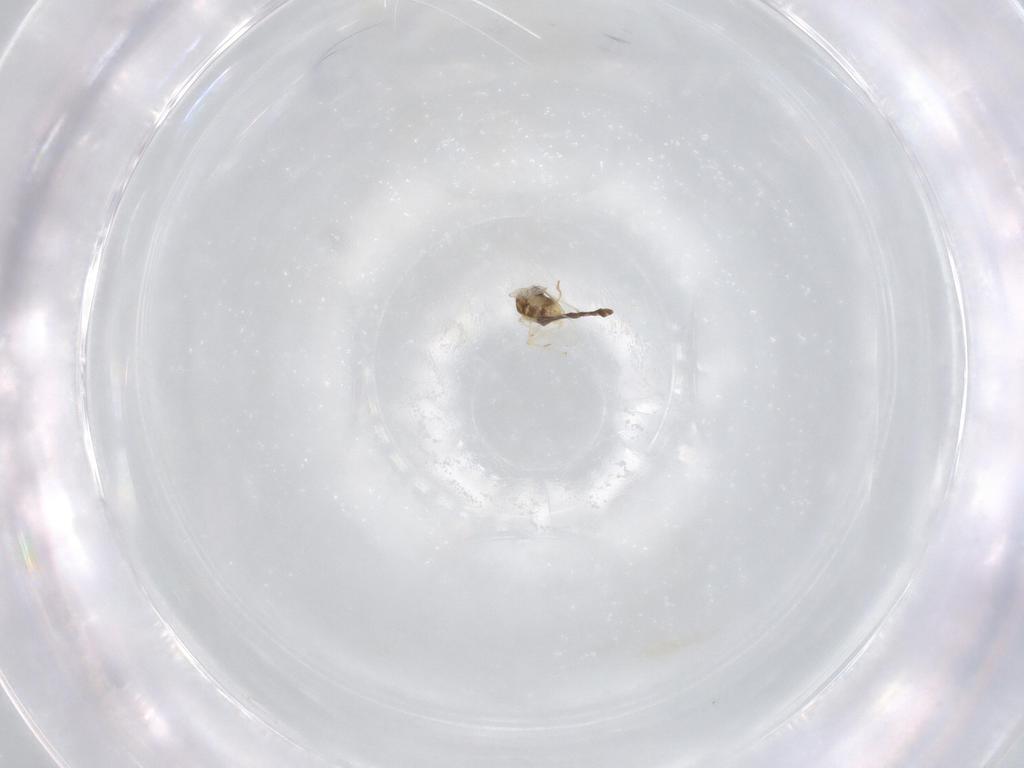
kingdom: Animalia
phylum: Arthropoda
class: Insecta
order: Diptera
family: Chironomidae
